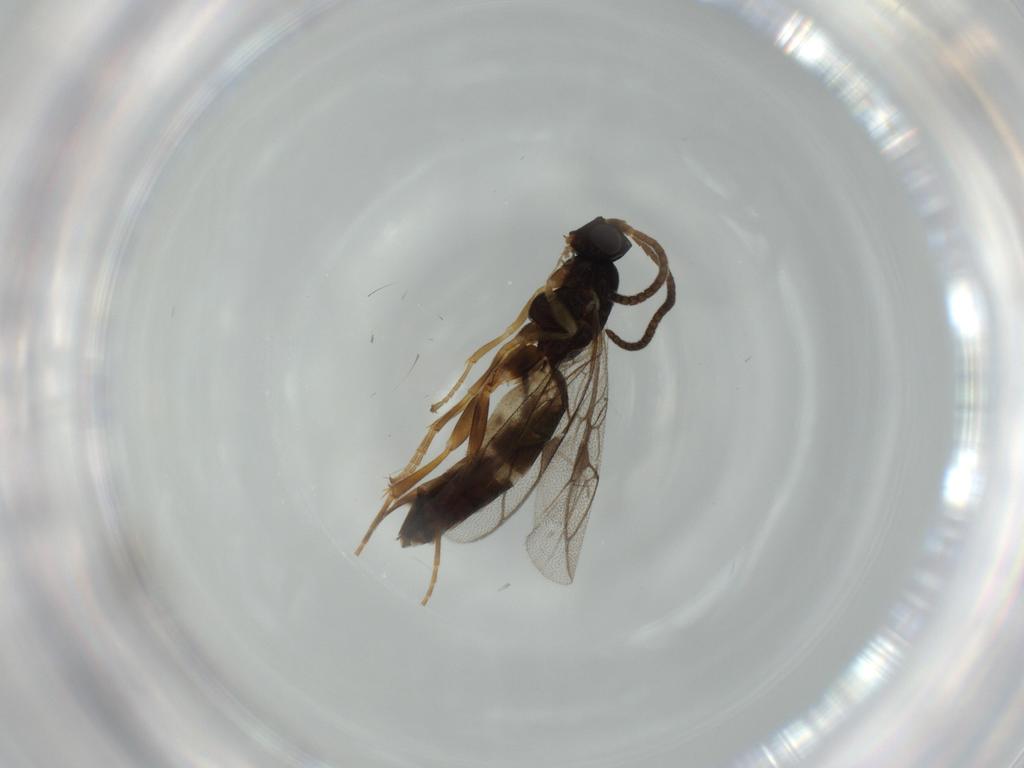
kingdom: Animalia
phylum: Arthropoda
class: Insecta
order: Hymenoptera
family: Ichneumonidae
